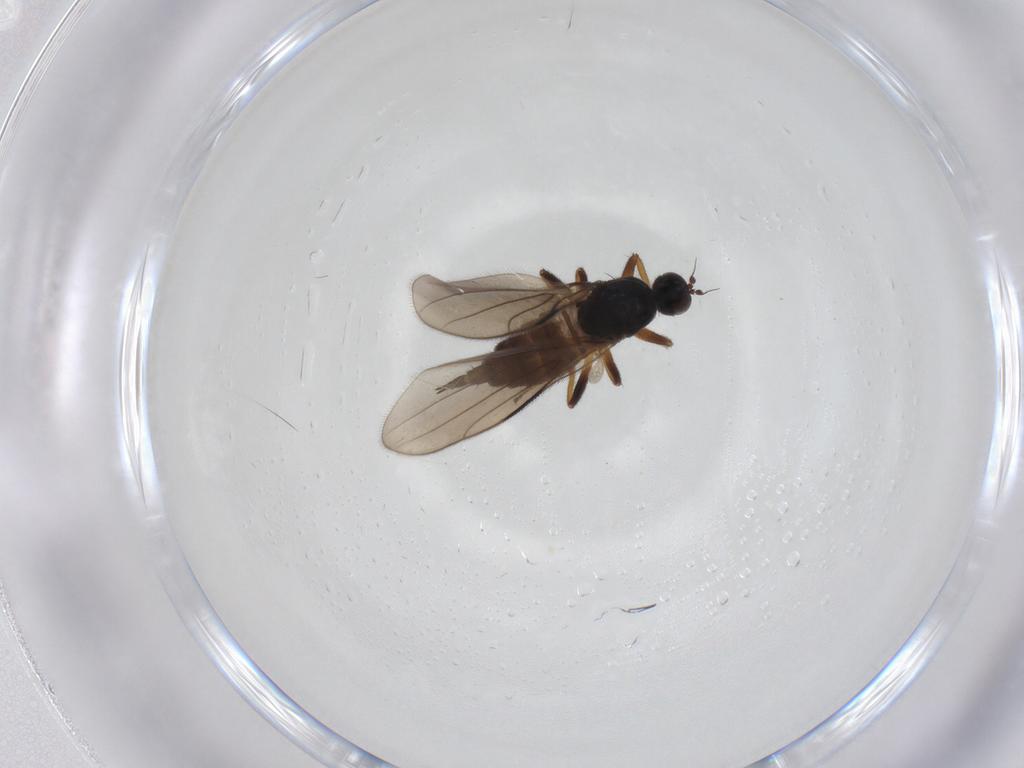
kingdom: Animalia
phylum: Arthropoda
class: Insecta
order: Diptera
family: Hybotidae
